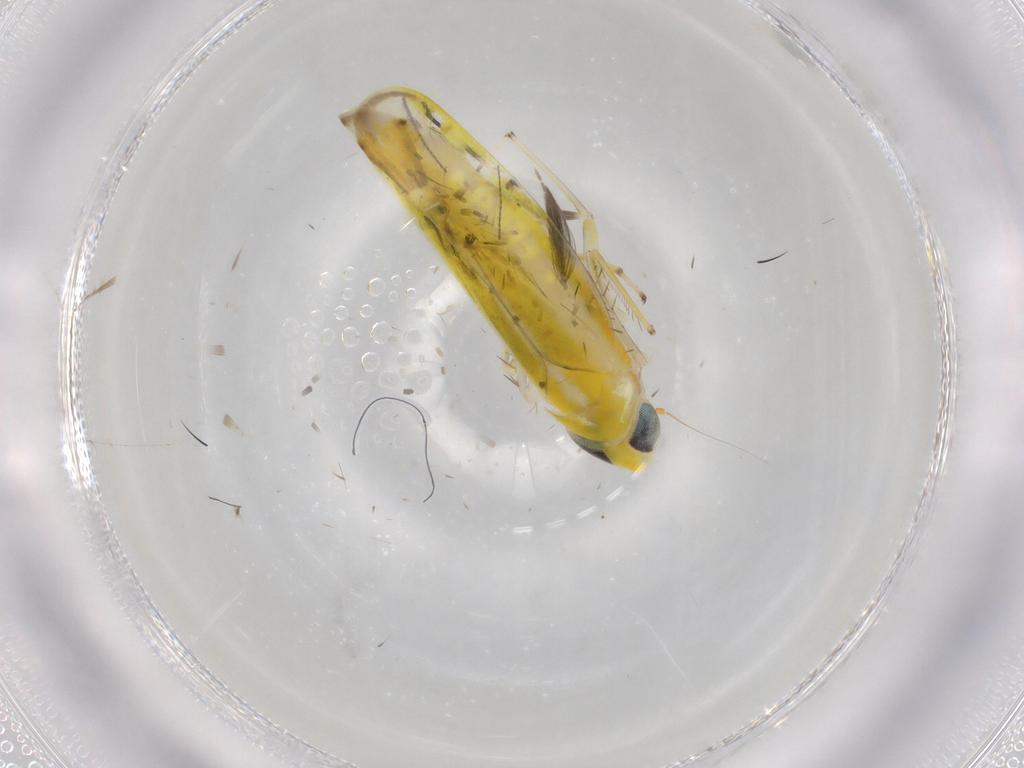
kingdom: Animalia
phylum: Arthropoda
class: Insecta
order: Hemiptera
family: Cicadellidae
